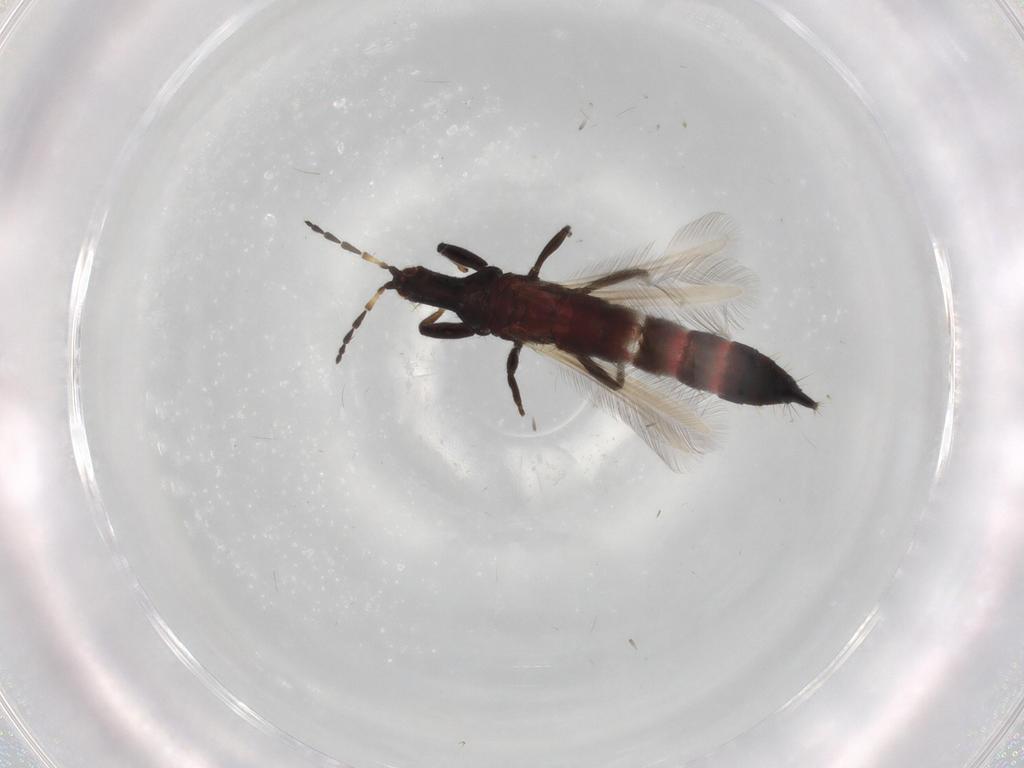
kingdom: Animalia
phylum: Arthropoda
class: Insecta
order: Thysanoptera
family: Phlaeothripidae
